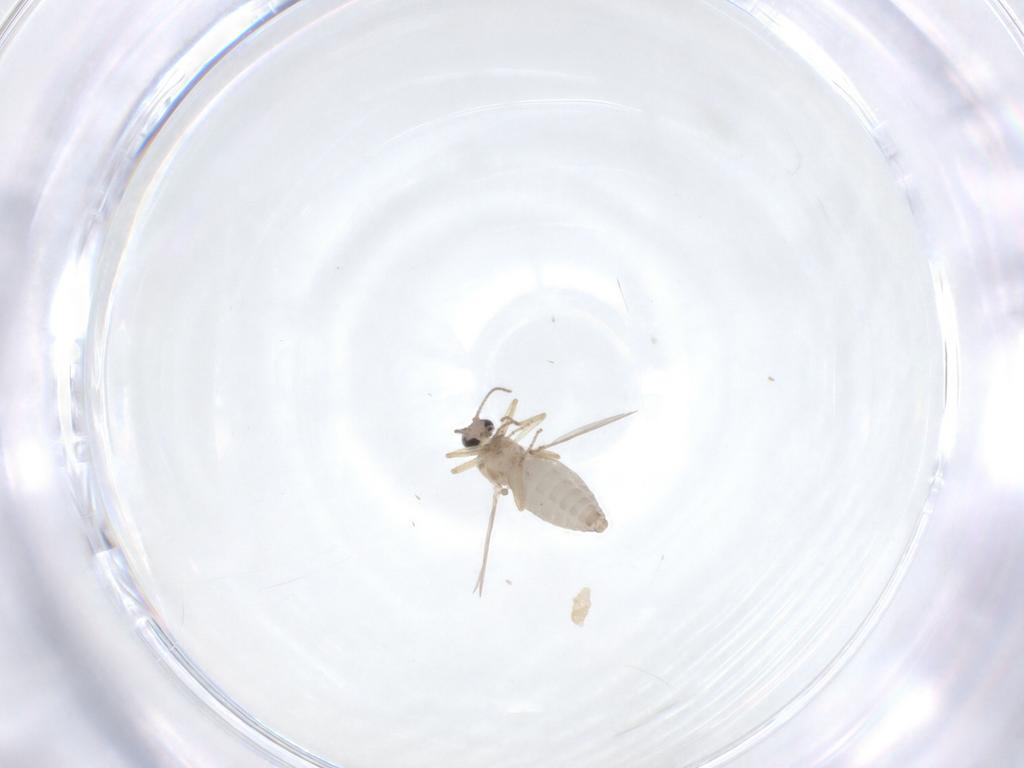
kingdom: Animalia
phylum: Arthropoda
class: Insecta
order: Diptera
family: Ceratopogonidae
